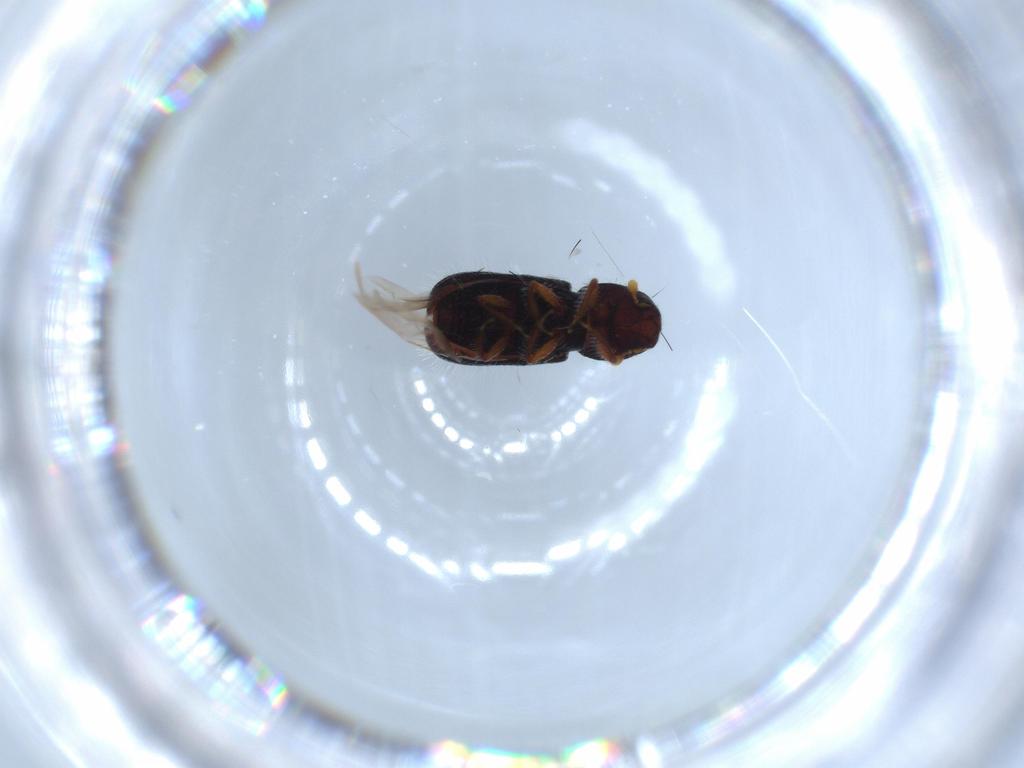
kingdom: Animalia
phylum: Arthropoda
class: Insecta
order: Coleoptera
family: Curculionidae
